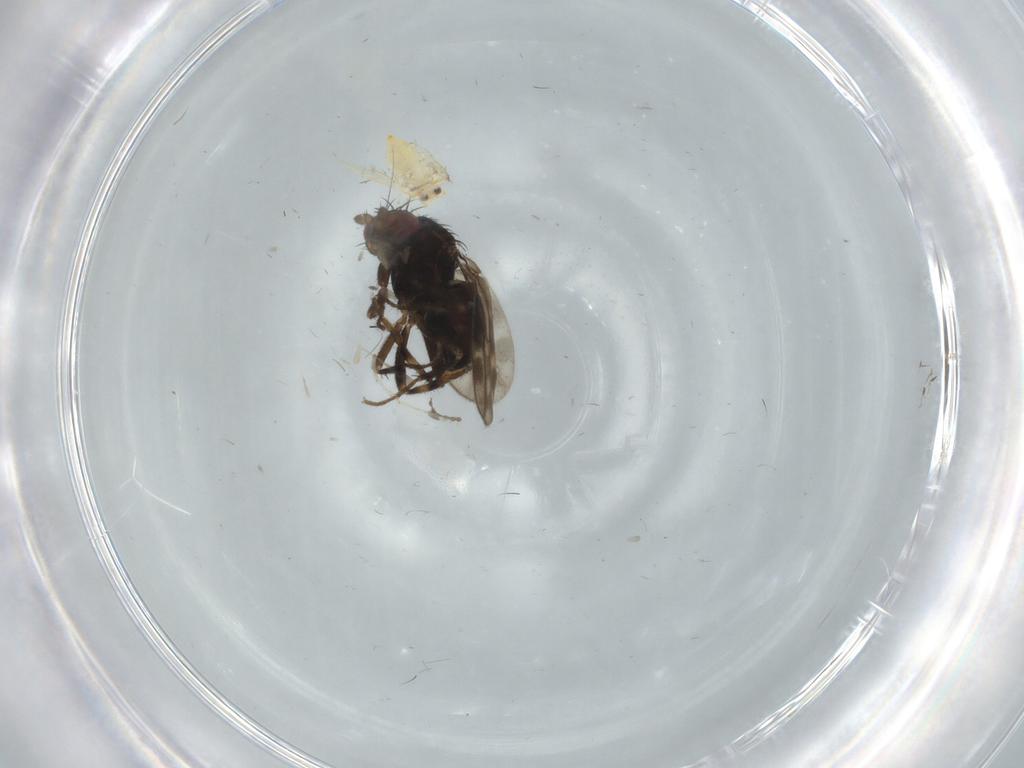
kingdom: Animalia
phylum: Arthropoda
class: Insecta
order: Diptera
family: Sphaeroceridae
